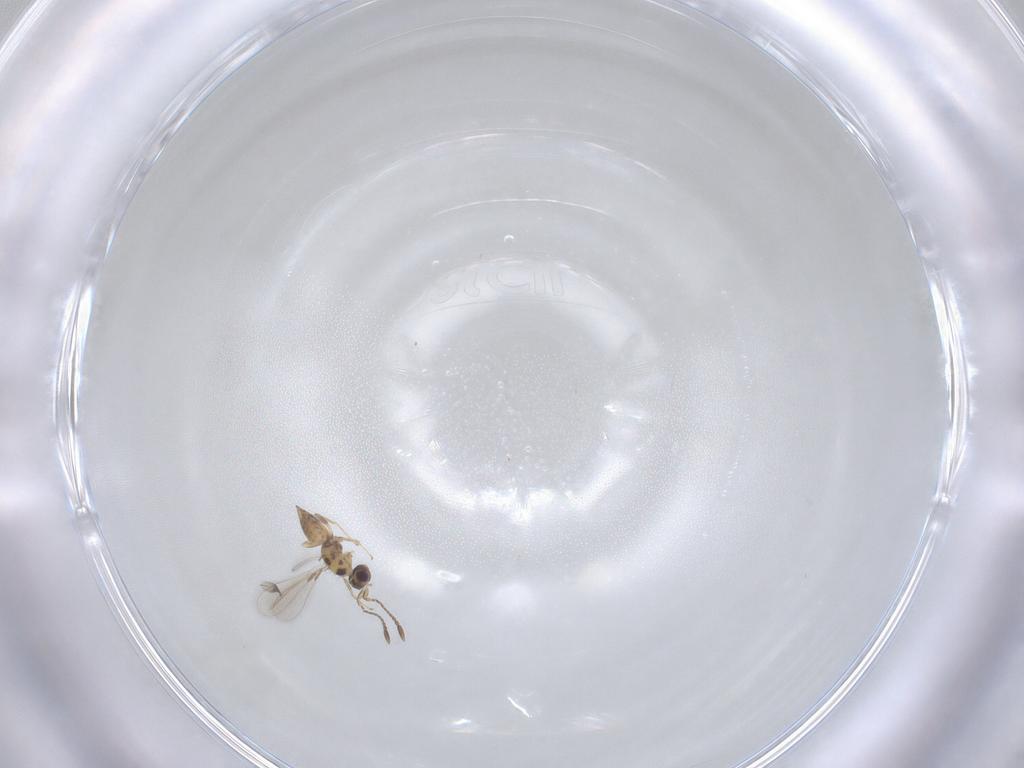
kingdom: Animalia
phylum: Arthropoda
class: Insecta
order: Hymenoptera
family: Mymaridae
